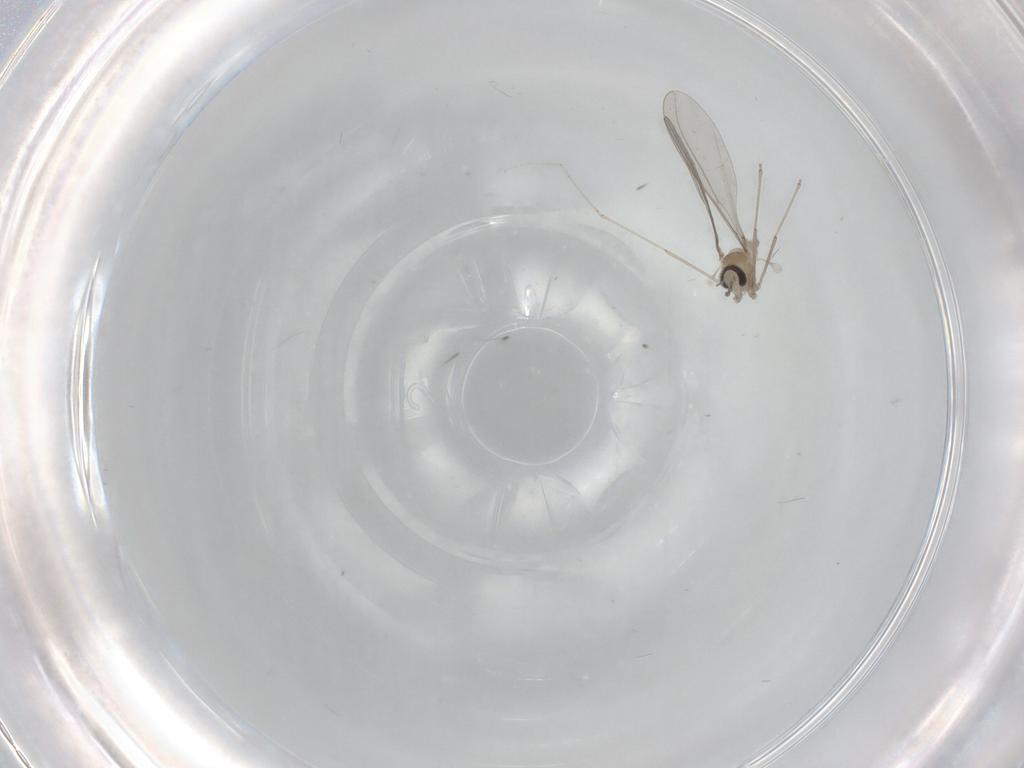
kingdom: Animalia
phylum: Arthropoda
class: Insecta
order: Diptera
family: Cecidomyiidae
